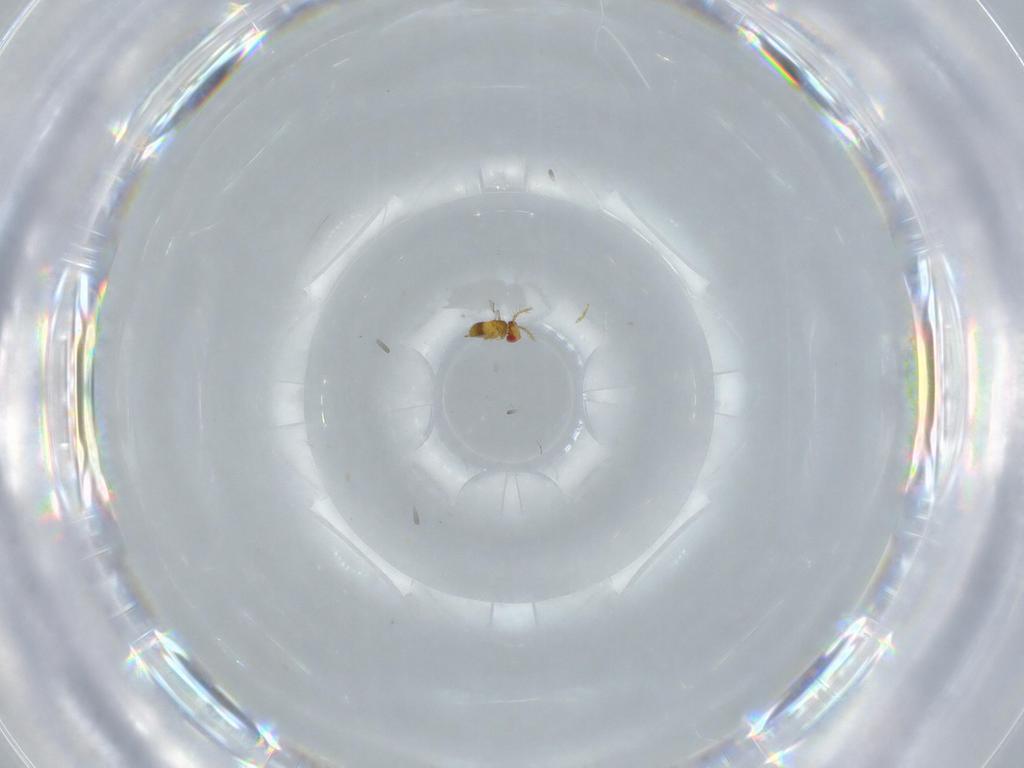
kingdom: Animalia
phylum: Arthropoda
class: Insecta
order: Hymenoptera
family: Trichogrammatidae
